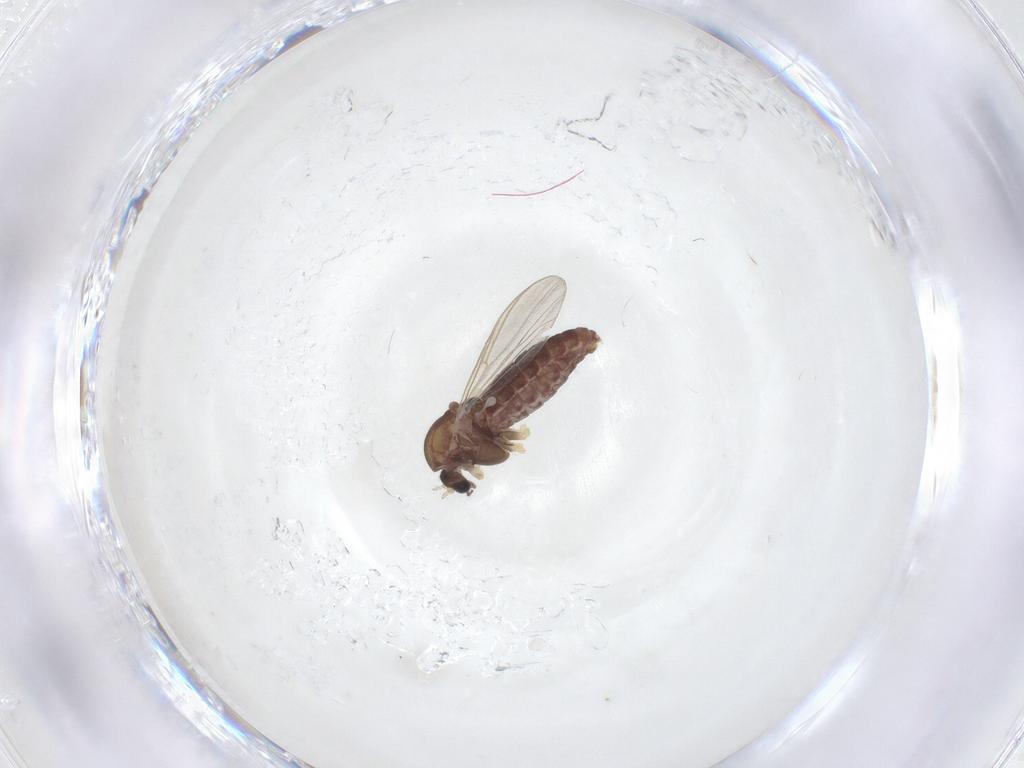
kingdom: Animalia
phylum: Arthropoda
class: Insecta
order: Diptera
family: Chironomidae
